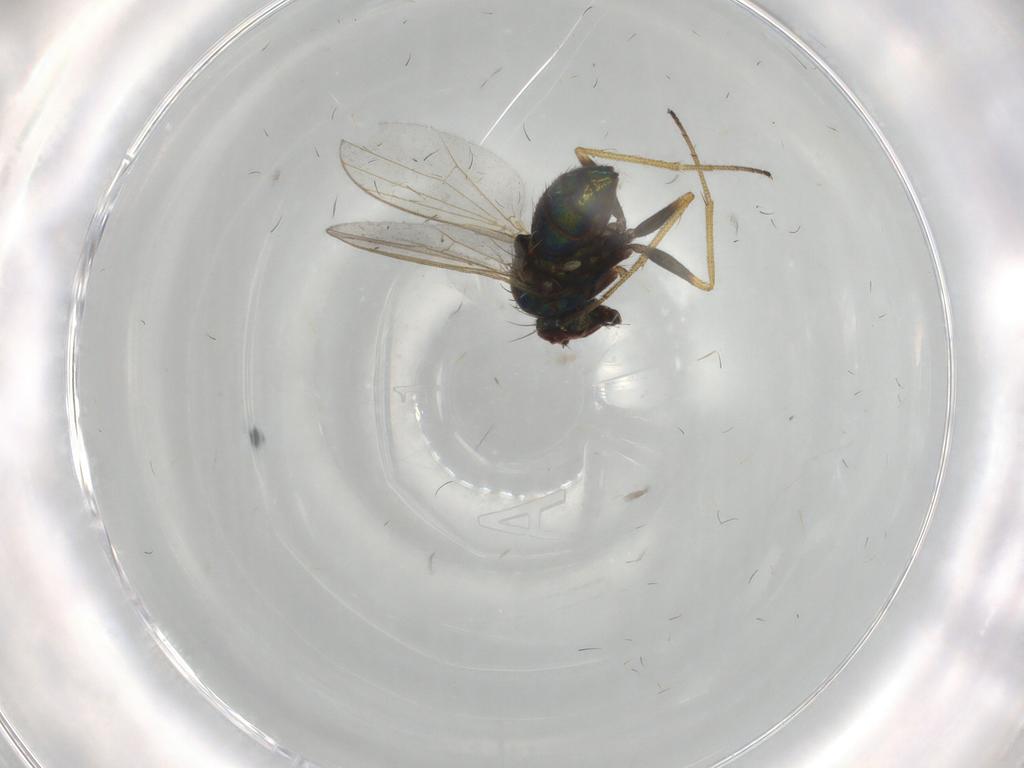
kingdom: Animalia
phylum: Arthropoda
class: Insecta
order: Diptera
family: Dolichopodidae
